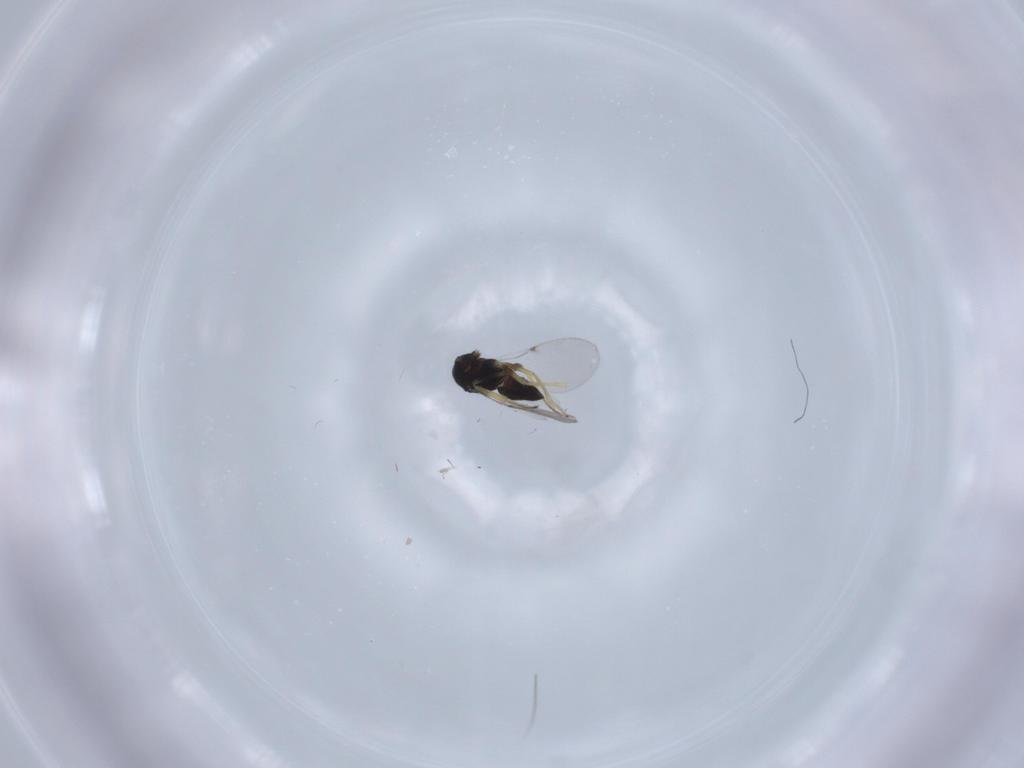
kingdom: Animalia
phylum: Arthropoda
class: Insecta
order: Hymenoptera
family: Encyrtidae
